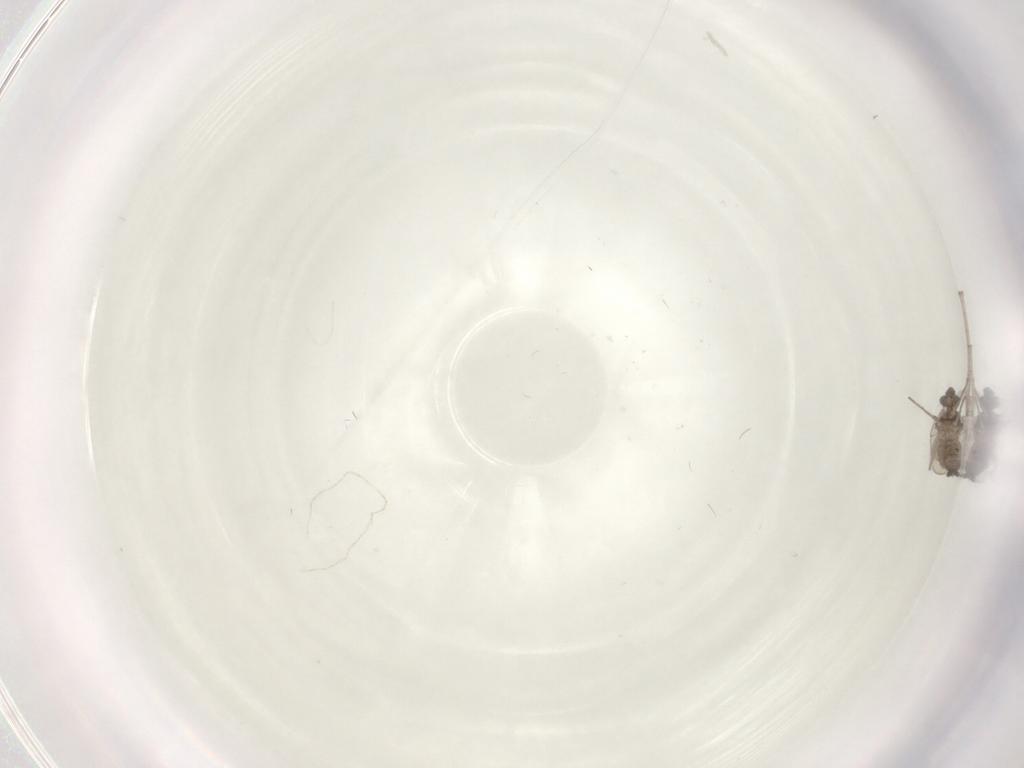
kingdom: Animalia
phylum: Arthropoda
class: Insecta
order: Diptera
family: Cecidomyiidae
